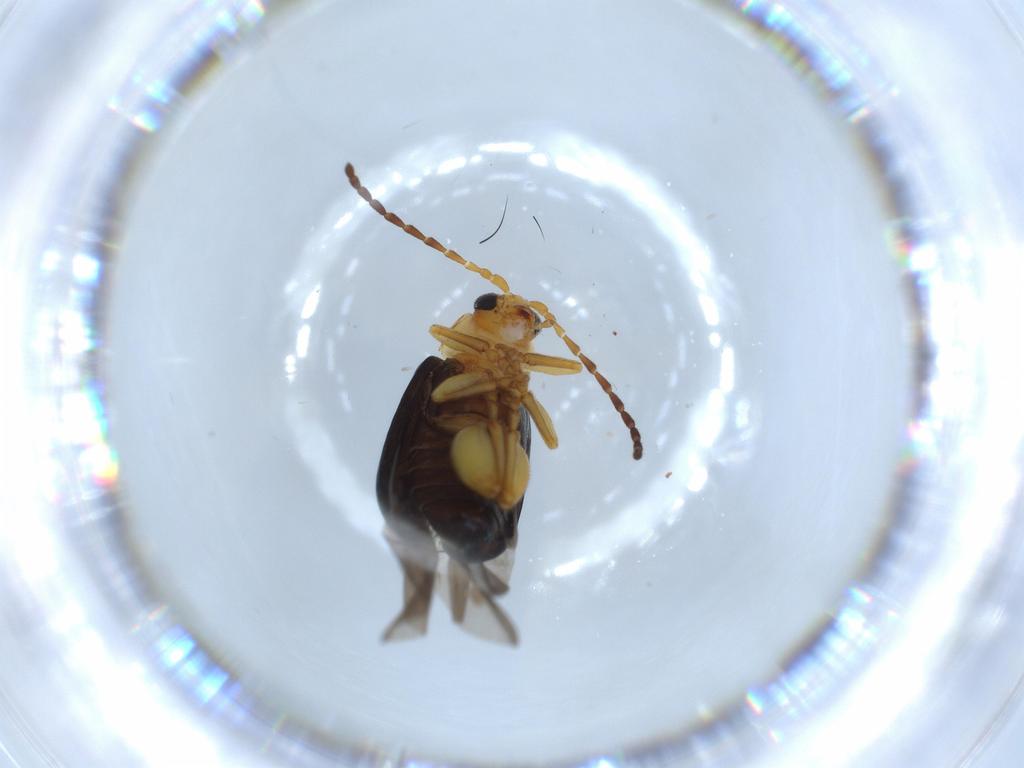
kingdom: Animalia
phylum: Arthropoda
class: Insecta
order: Coleoptera
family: Chrysomelidae
